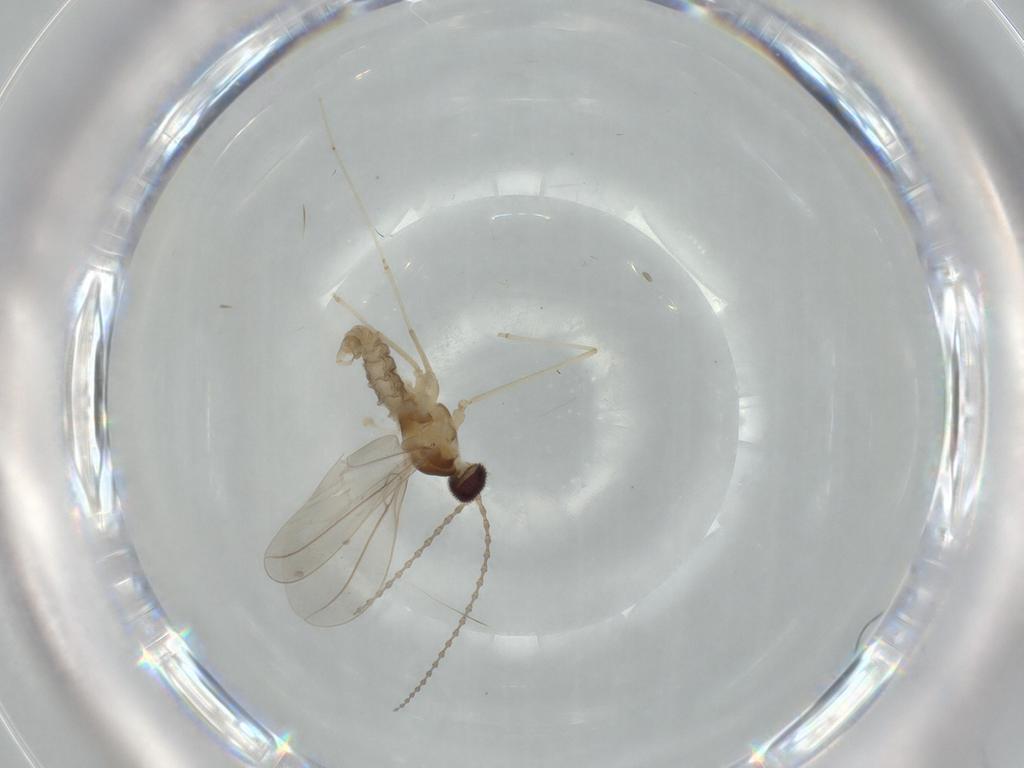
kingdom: Animalia
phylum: Arthropoda
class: Insecta
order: Diptera
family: Cecidomyiidae
